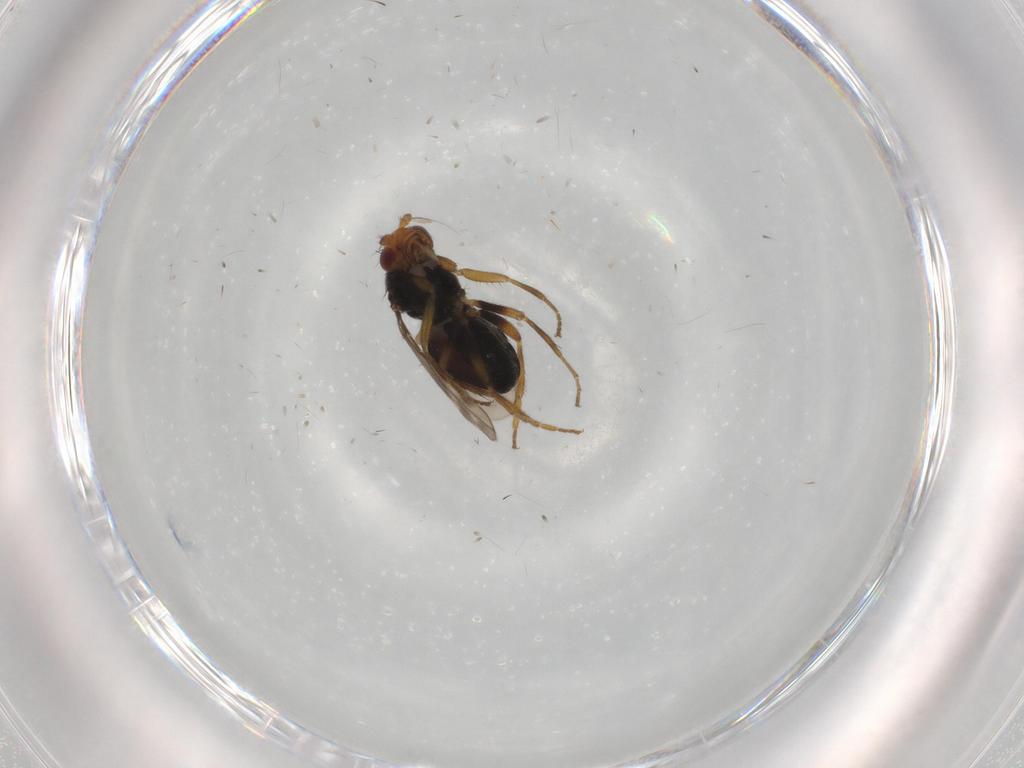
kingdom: Animalia
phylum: Arthropoda
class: Insecta
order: Diptera
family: Sphaeroceridae
